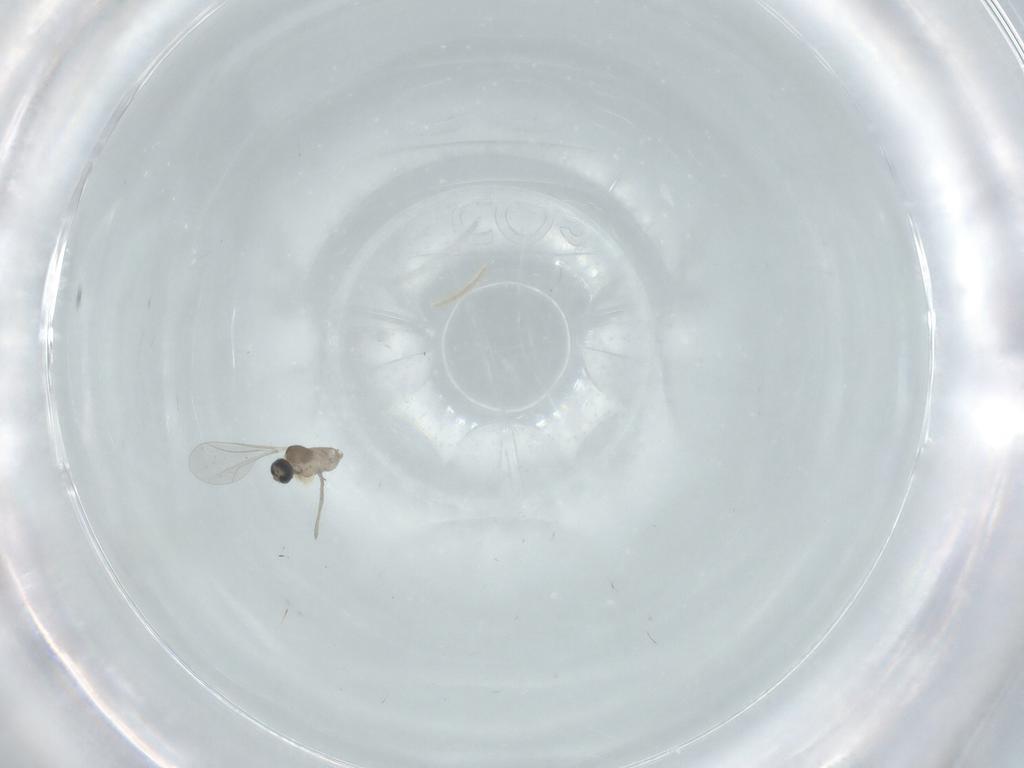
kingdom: Animalia
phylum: Arthropoda
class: Insecta
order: Diptera
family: Cecidomyiidae
